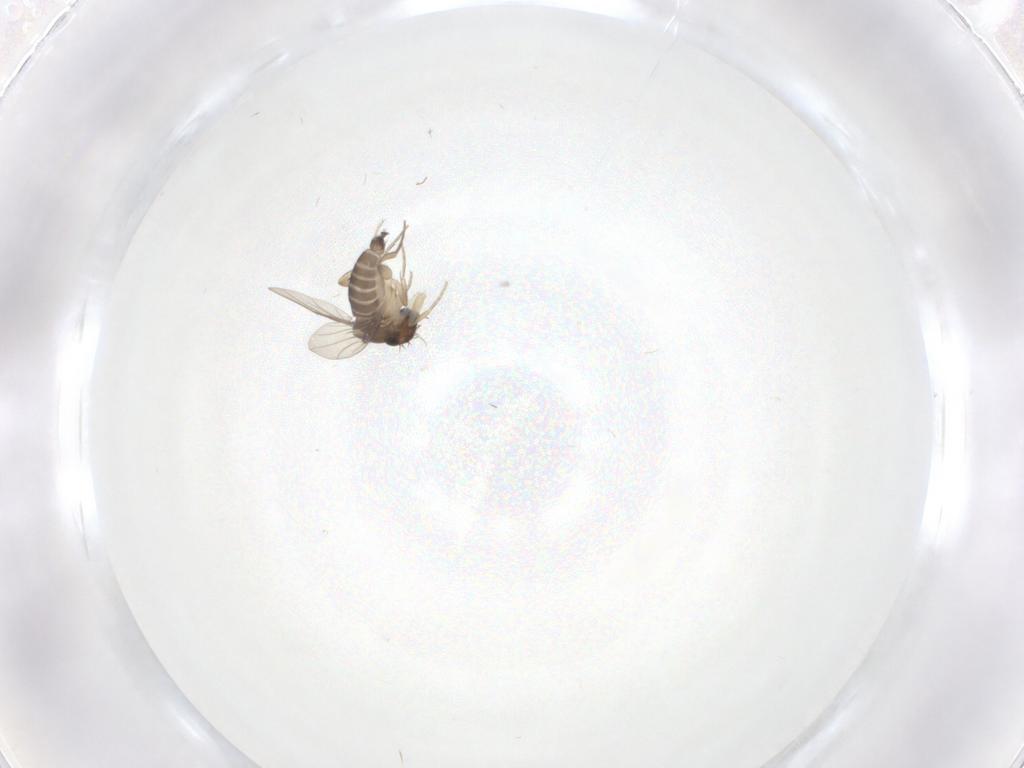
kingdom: Animalia
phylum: Arthropoda
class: Insecta
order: Diptera
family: Phoridae
